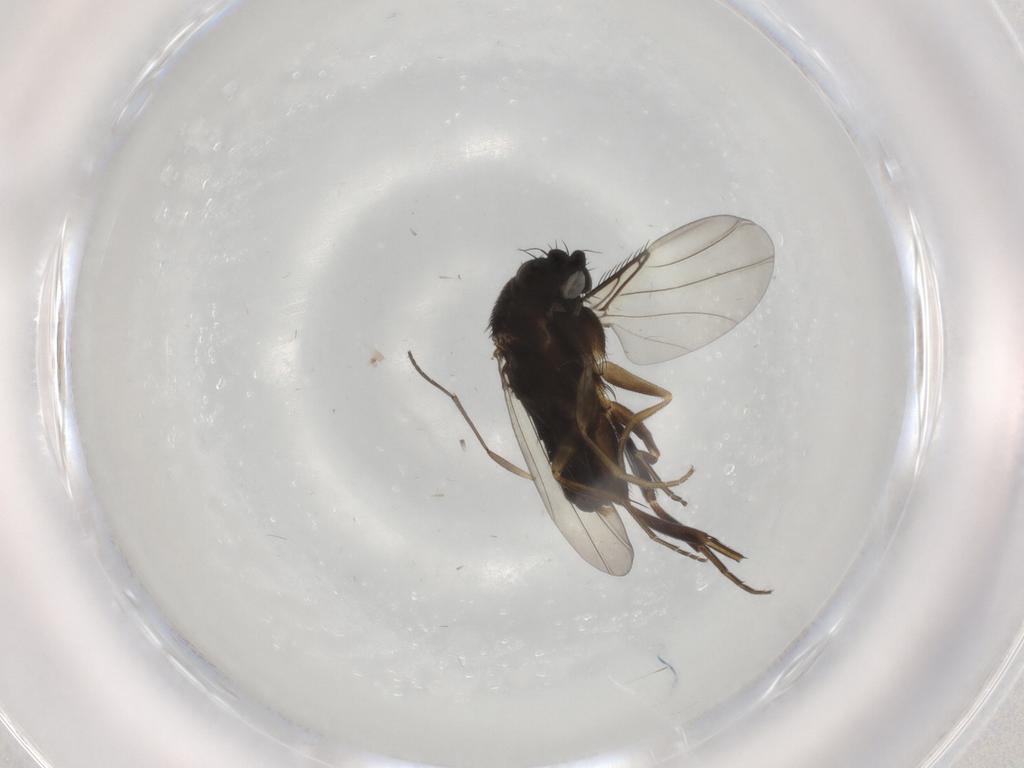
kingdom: Animalia
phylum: Arthropoda
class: Insecta
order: Diptera
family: Phoridae
